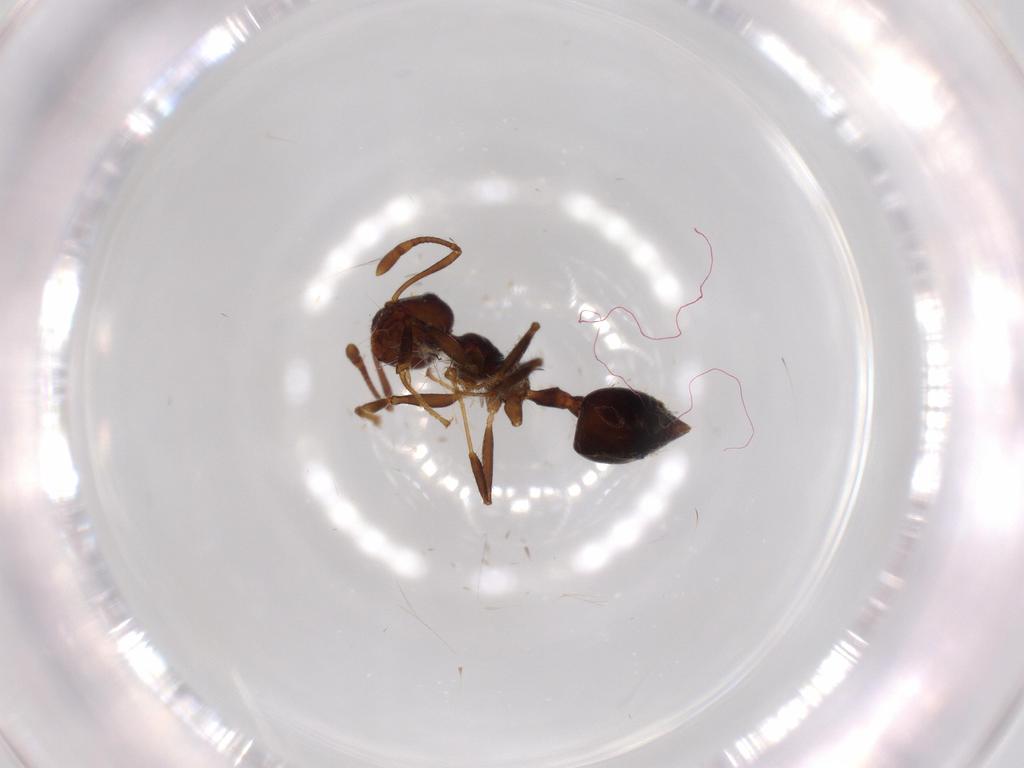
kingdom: Animalia
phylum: Arthropoda
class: Insecta
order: Hymenoptera
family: Formicidae
